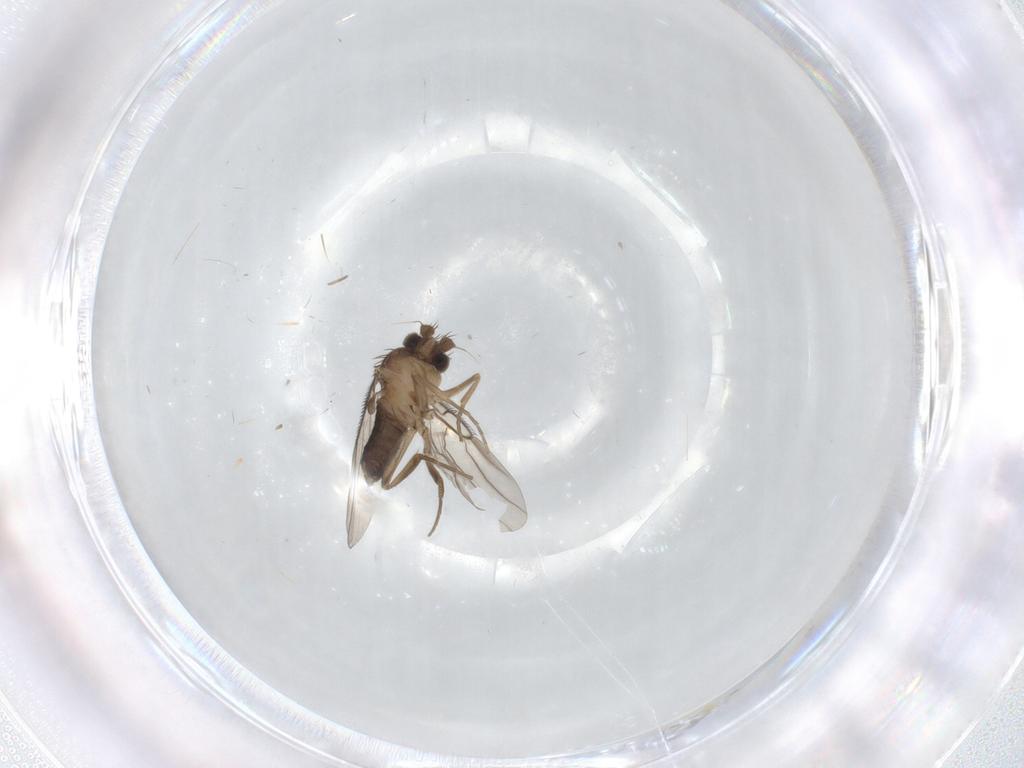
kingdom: Animalia
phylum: Arthropoda
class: Insecta
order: Diptera
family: Phoridae
